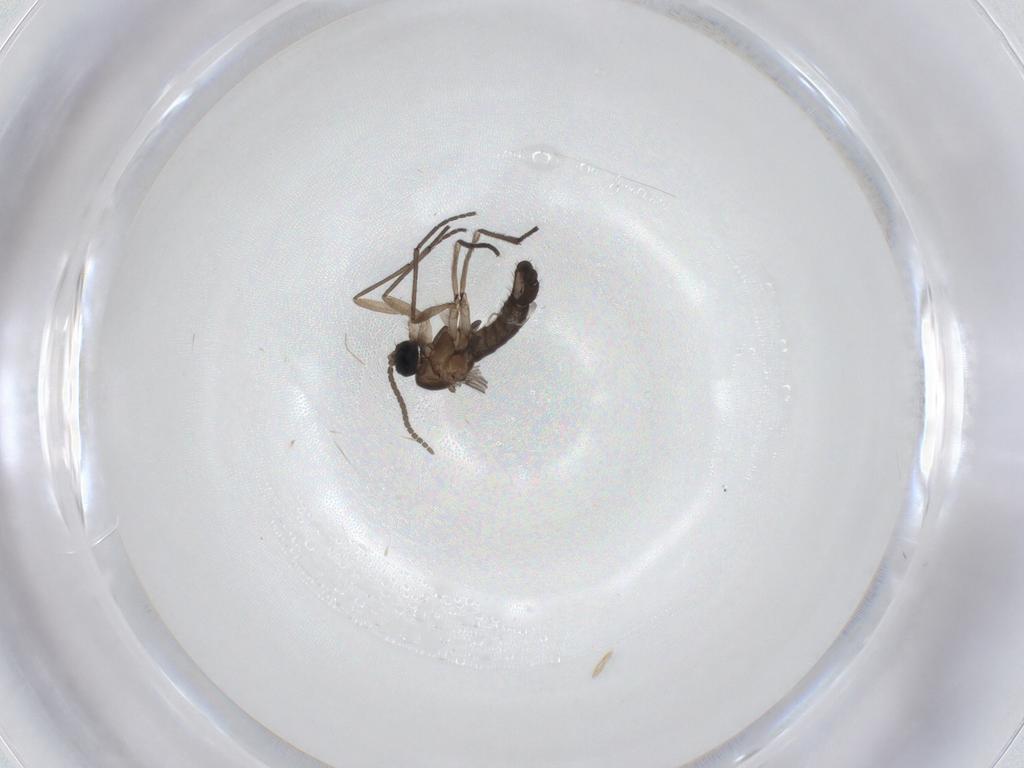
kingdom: Animalia
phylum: Arthropoda
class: Insecta
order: Diptera
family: Sciaridae
